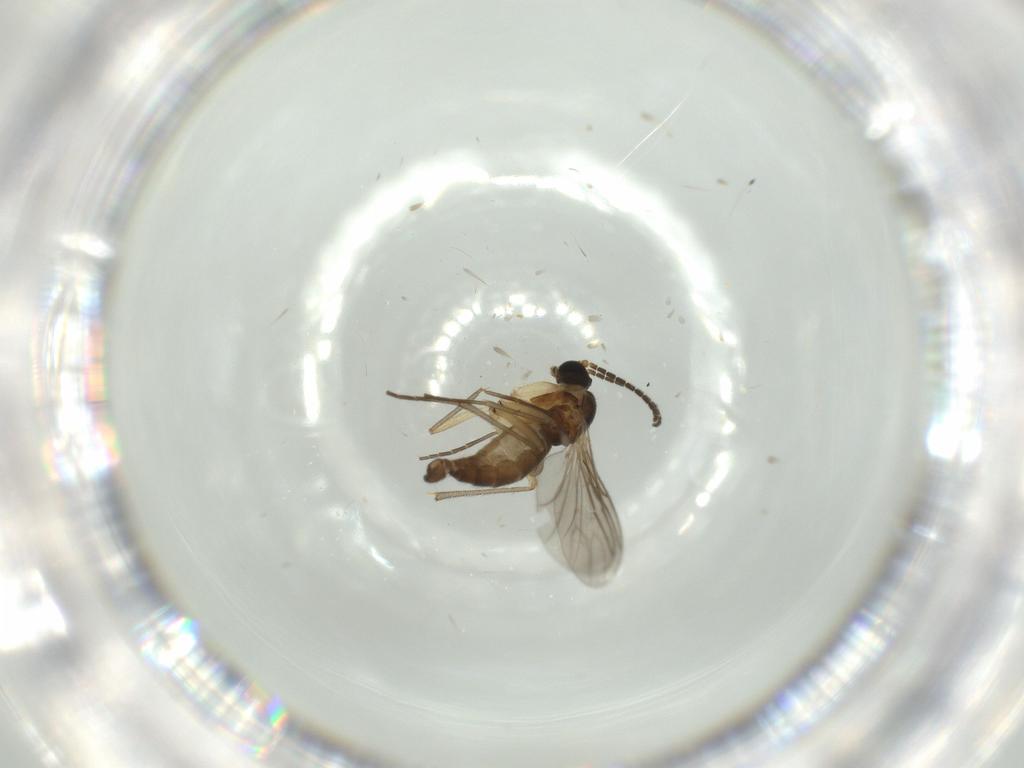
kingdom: Animalia
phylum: Arthropoda
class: Insecta
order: Diptera
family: Sciaridae
